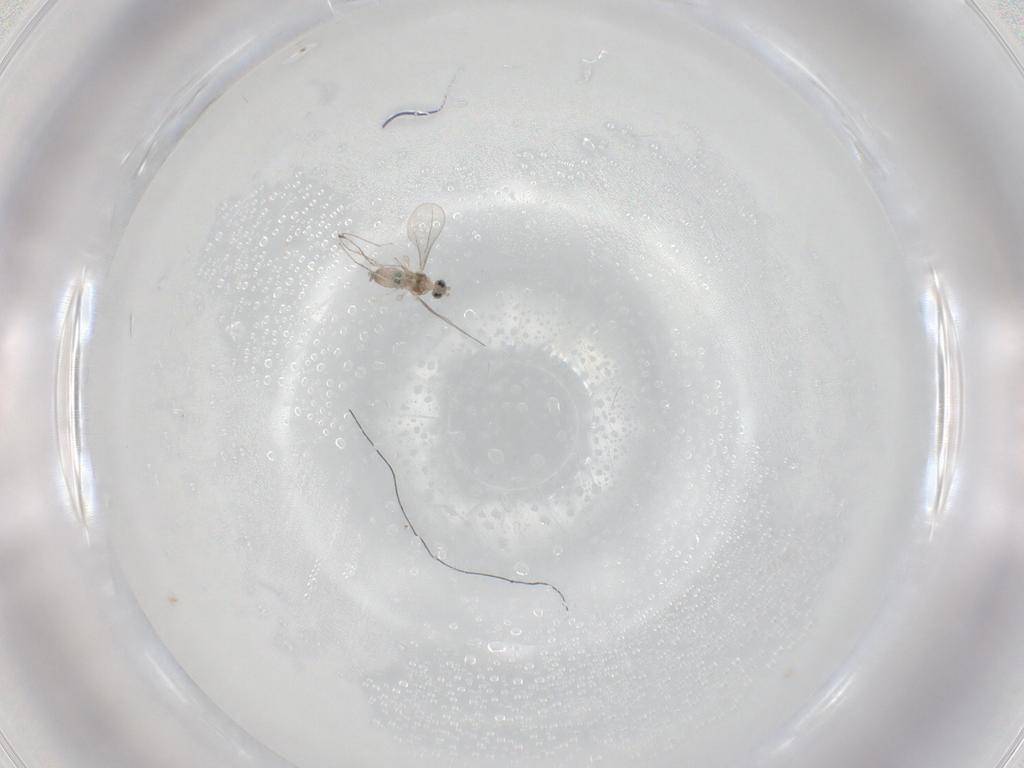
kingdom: Animalia
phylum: Arthropoda
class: Insecta
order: Diptera
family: Cecidomyiidae
